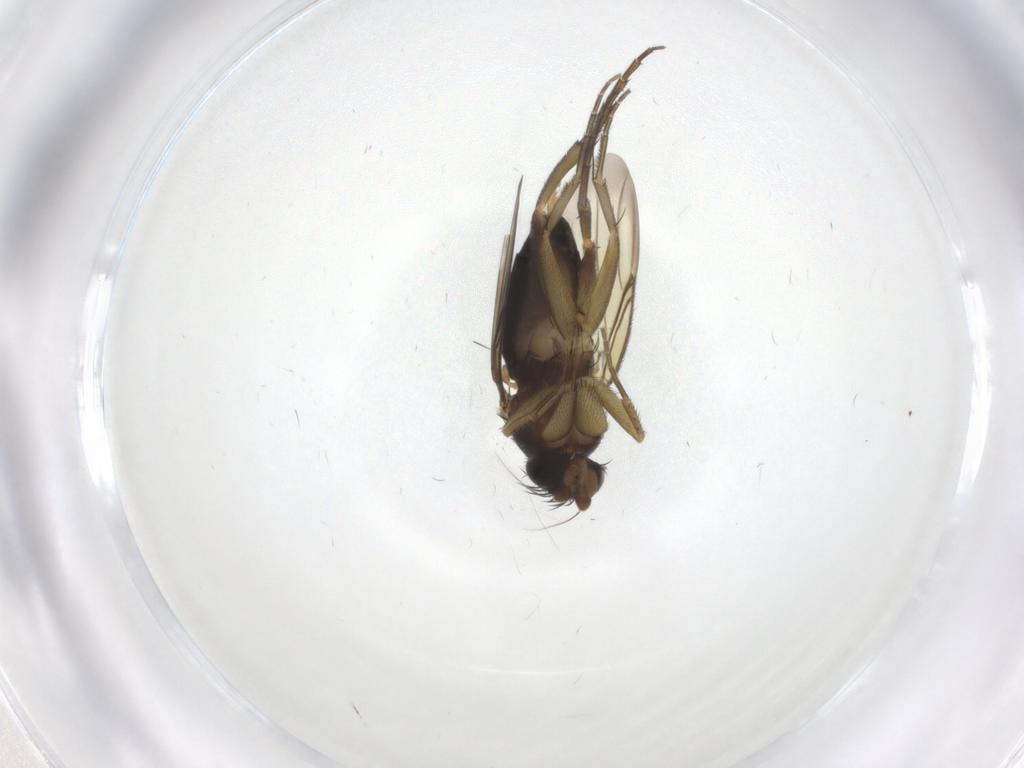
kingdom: Animalia
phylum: Arthropoda
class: Insecta
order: Diptera
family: Phoridae
